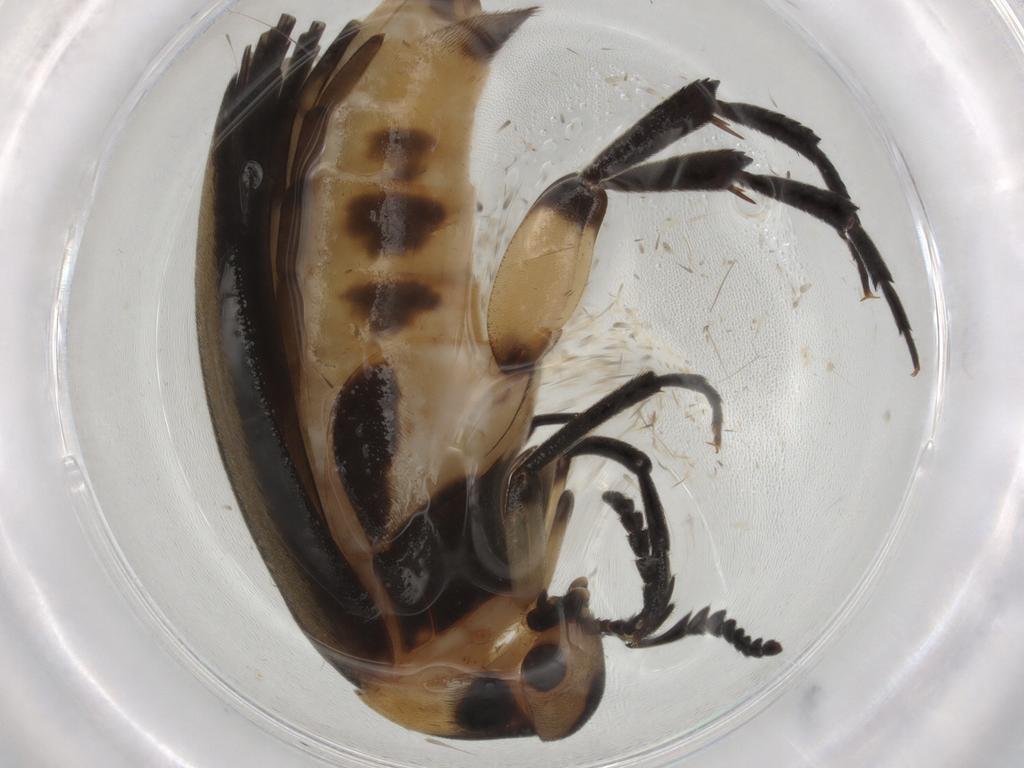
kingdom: Animalia
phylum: Arthropoda
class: Insecta
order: Coleoptera
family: Mordellidae
